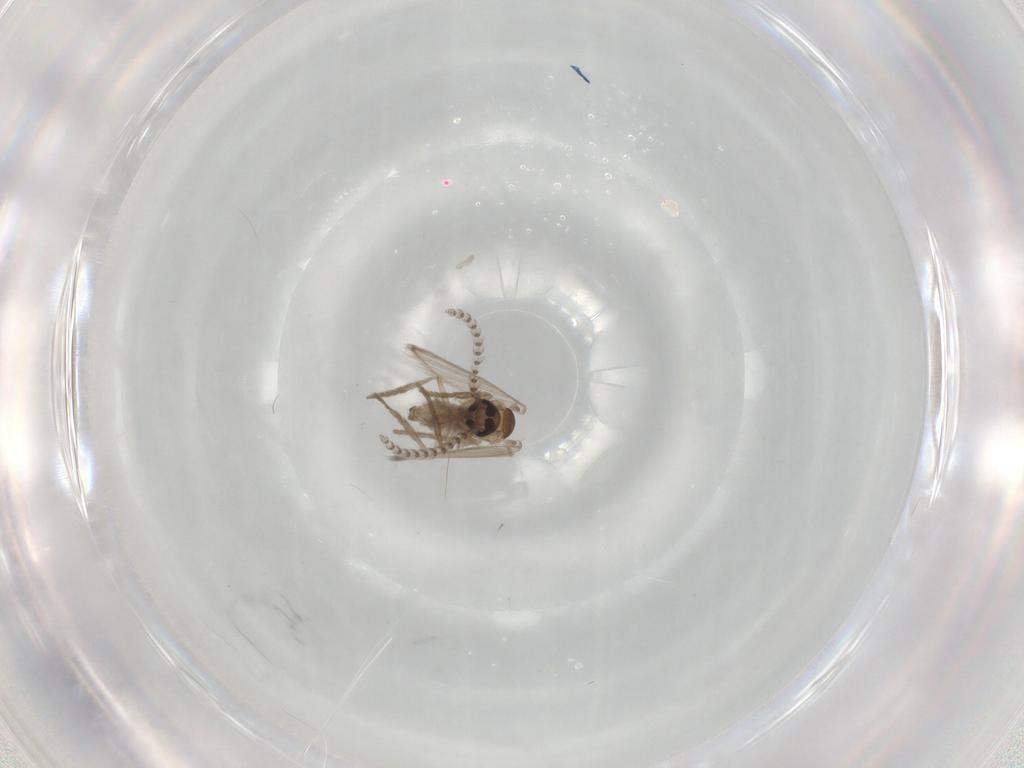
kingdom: Animalia
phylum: Arthropoda
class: Insecta
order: Diptera
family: Psychodidae
